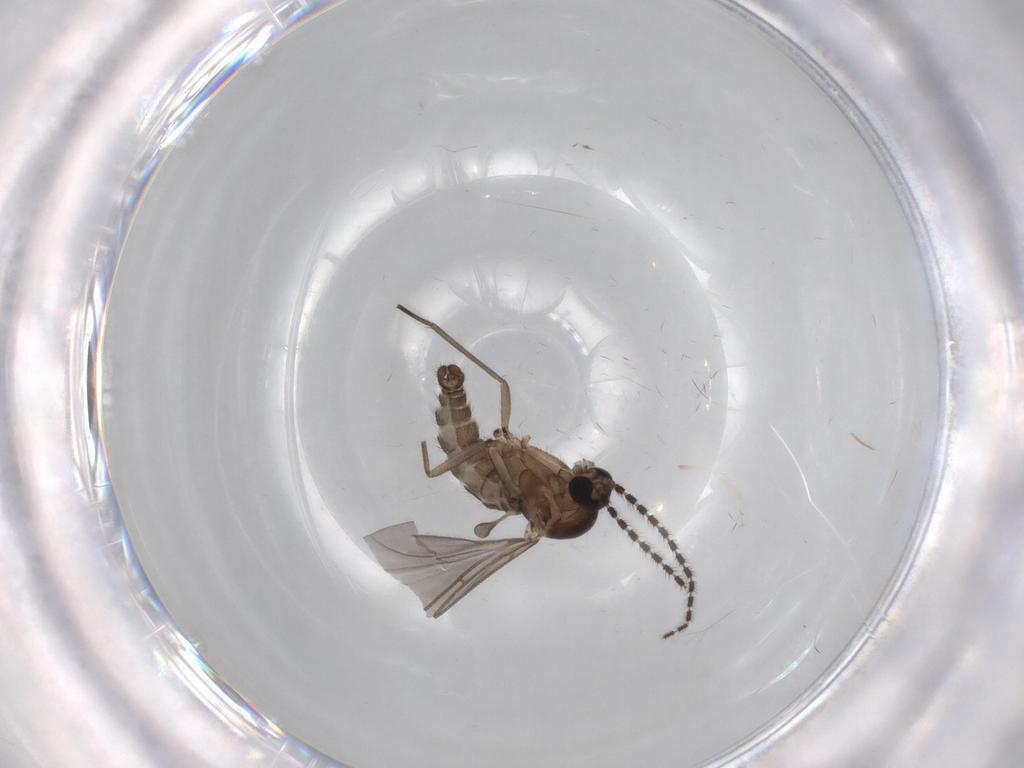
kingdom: Animalia
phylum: Arthropoda
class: Insecta
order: Diptera
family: Sciaridae
